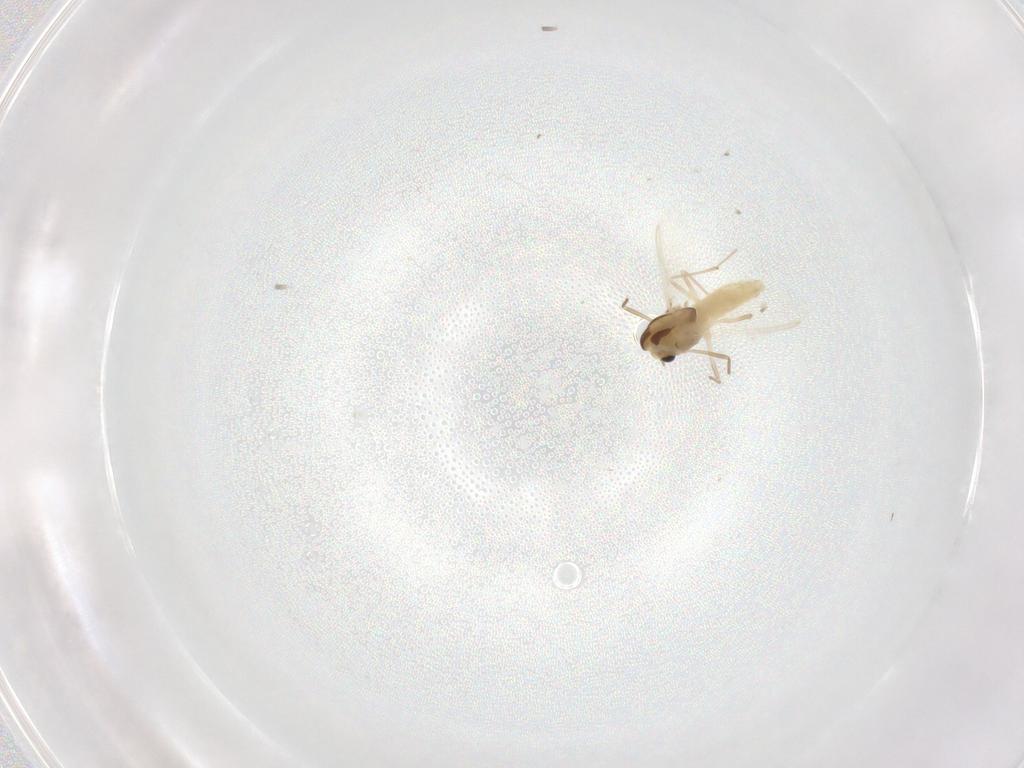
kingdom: Animalia
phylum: Arthropoda
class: Insecta
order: Diptera
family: Chironomidae
